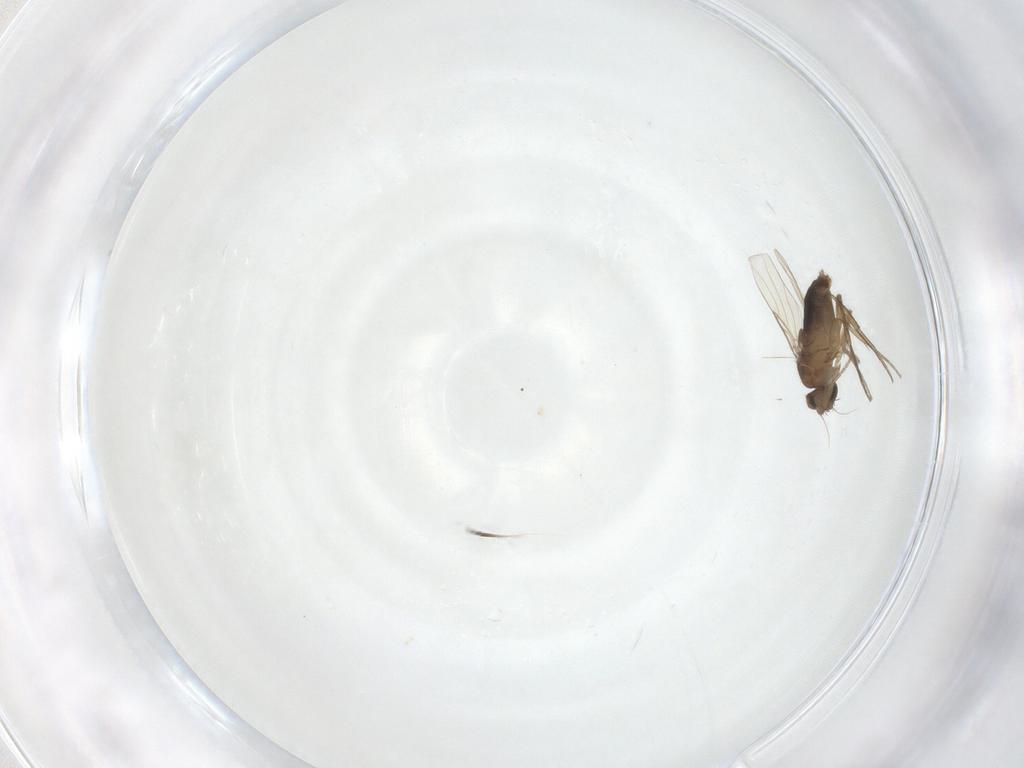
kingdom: Animalia
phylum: Arthropoda
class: Insecta
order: Diptera
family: Phoridae
